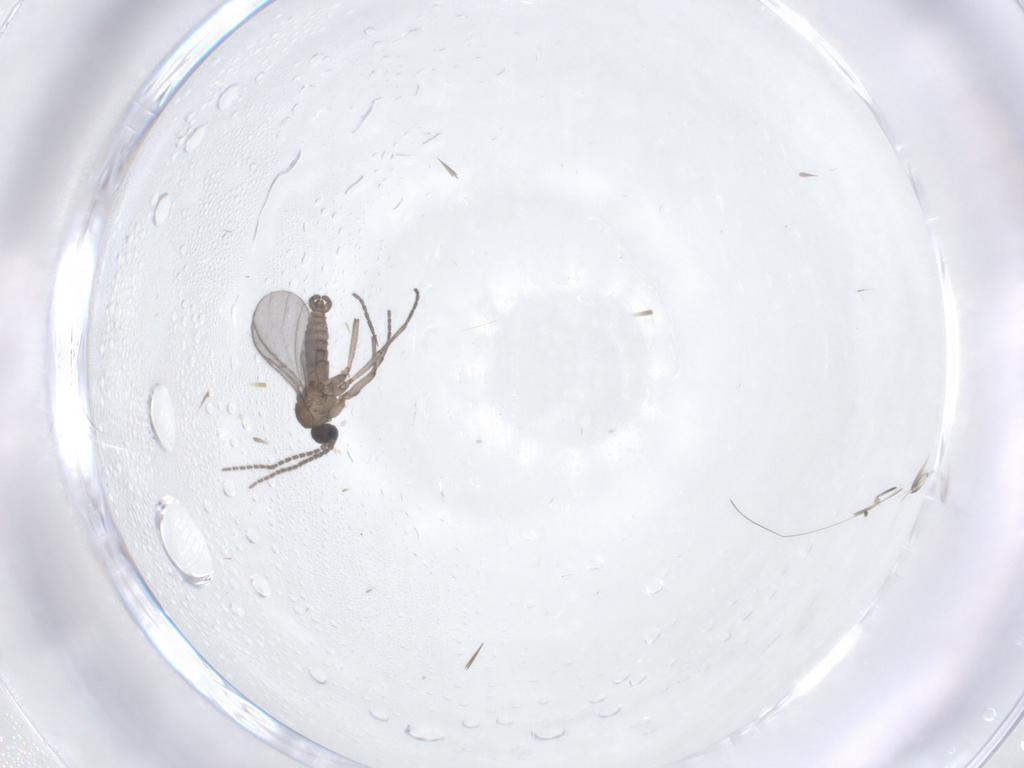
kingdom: Animalia
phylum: Arthropoda
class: Insecta
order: Diptera
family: Sciaridae
